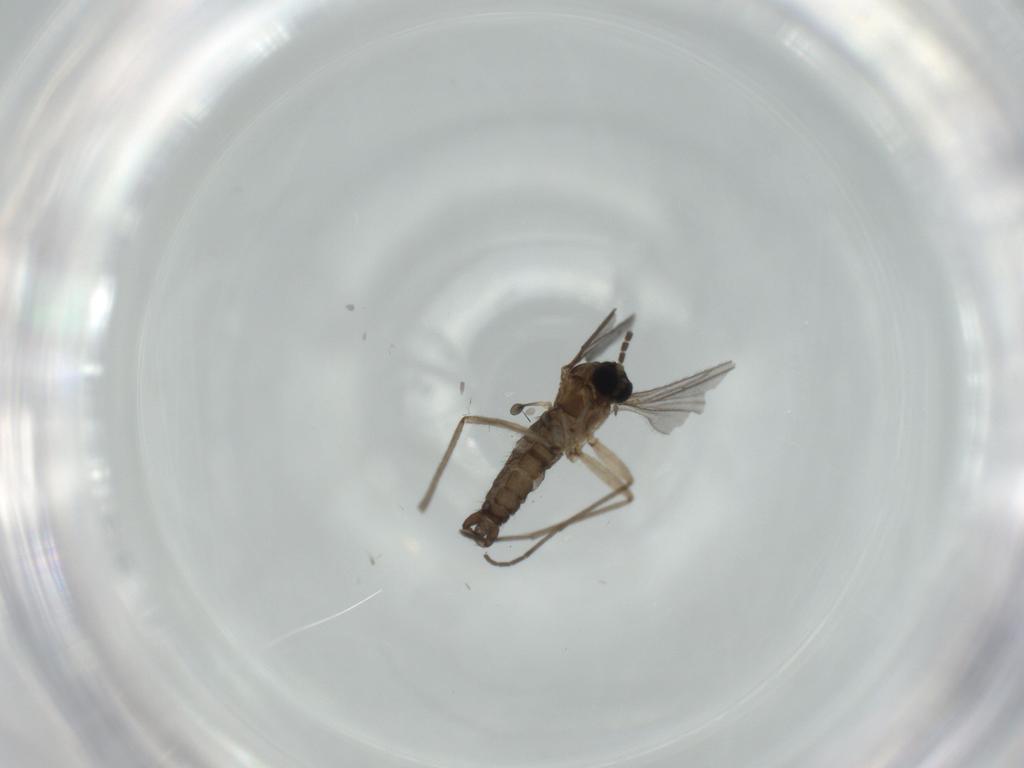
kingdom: Animalia
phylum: Arthropoda
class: Insecta
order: Diptera
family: Sciaridae
